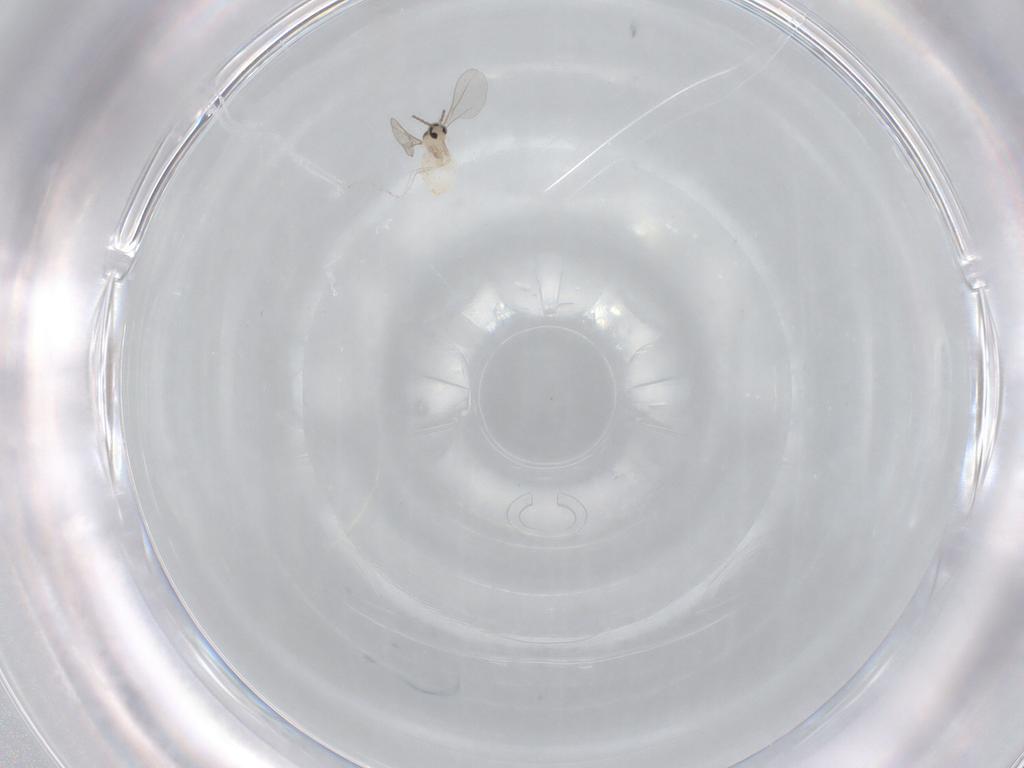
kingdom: Animalia
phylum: Arthropoda
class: Insecta
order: Diptera
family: Cecidomyiidae
